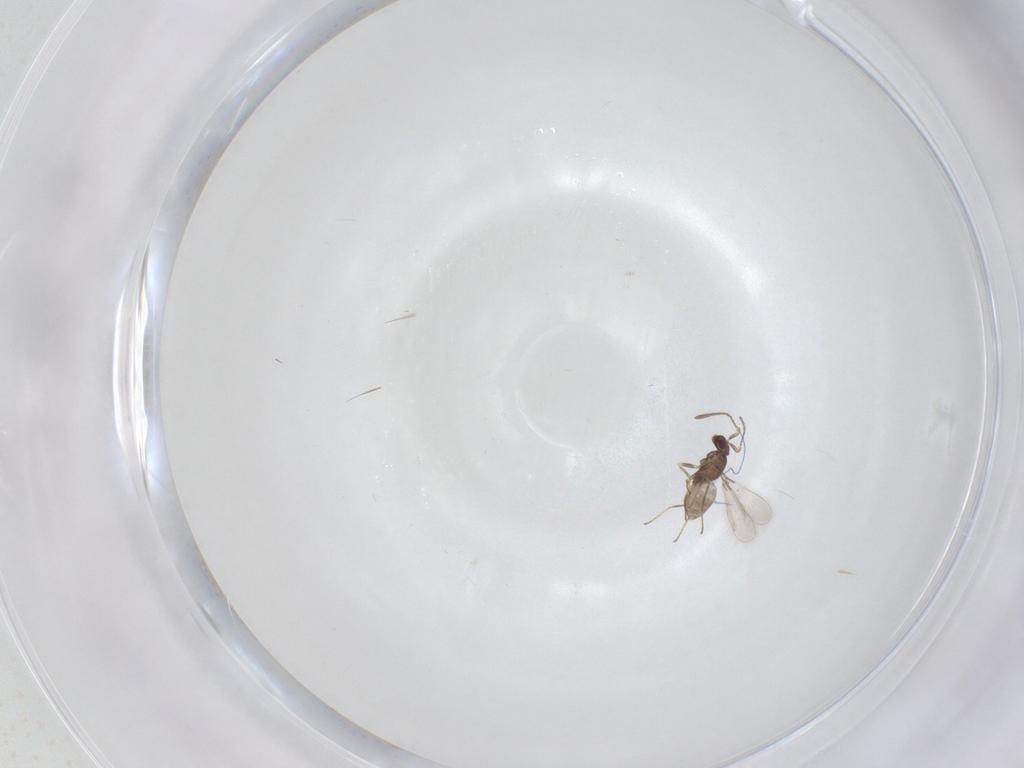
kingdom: Animalia
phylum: Arthropoda
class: Insecta
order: Hymenoptera
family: Mymaridae
